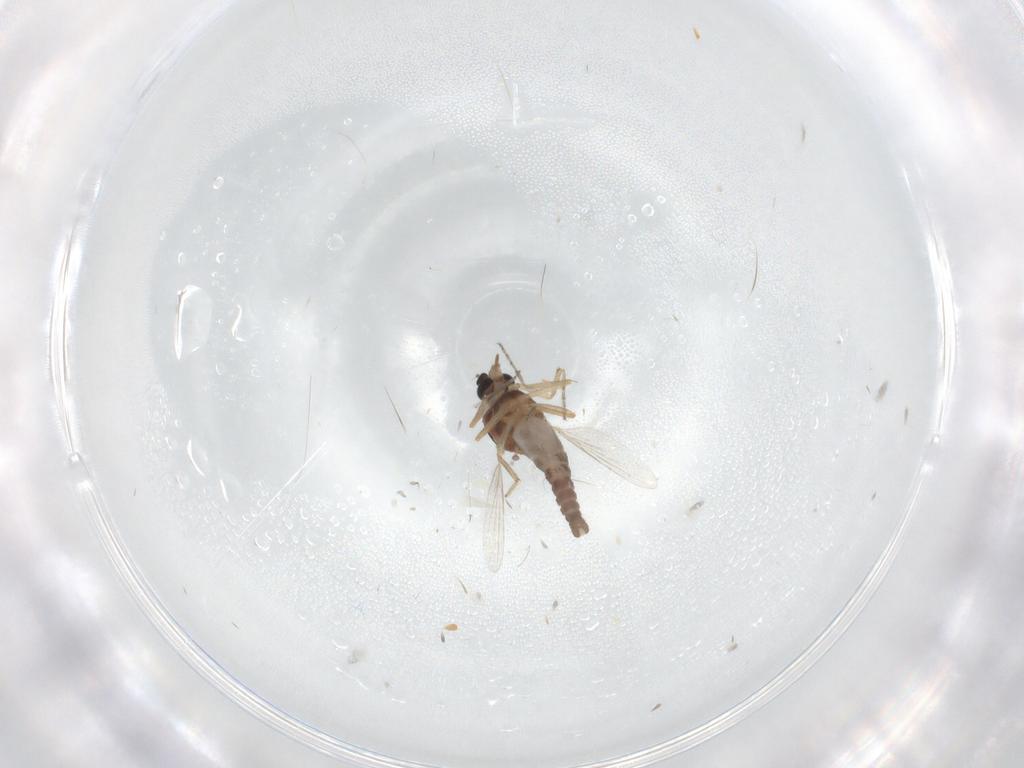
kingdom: Animalia
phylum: Arthropoda
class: Insecta
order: Diptera
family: Ceratopogonidae
